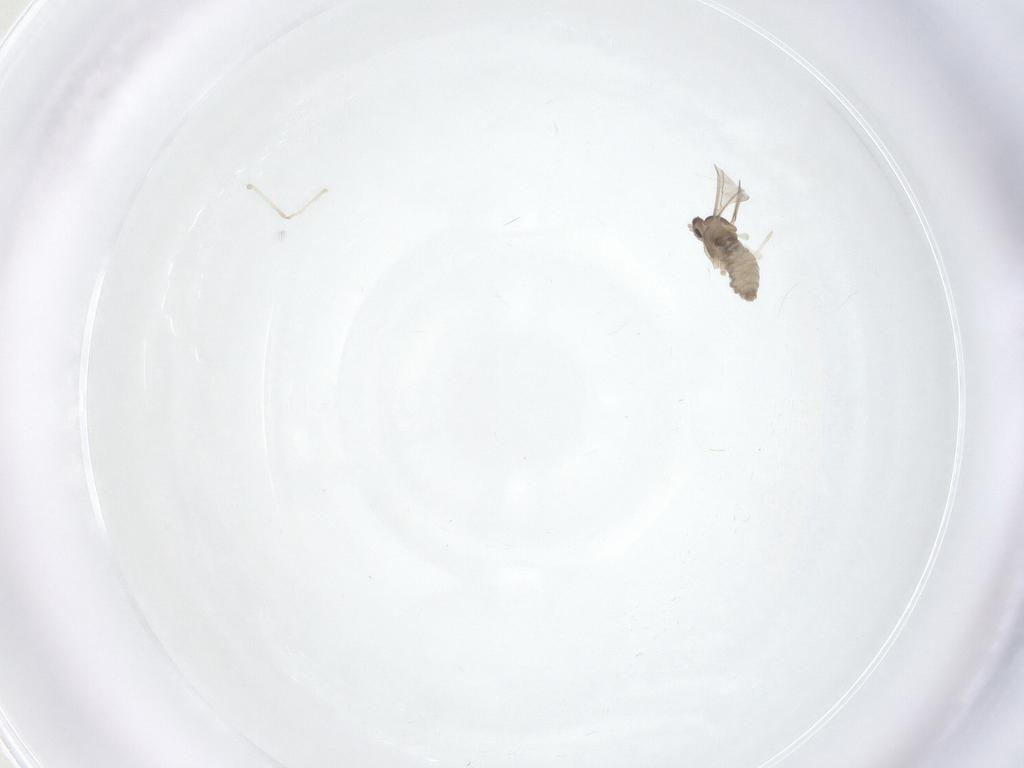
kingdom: Animalia
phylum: Arthropoda
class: Insecta
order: Diptera
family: Cecidomyiidae
